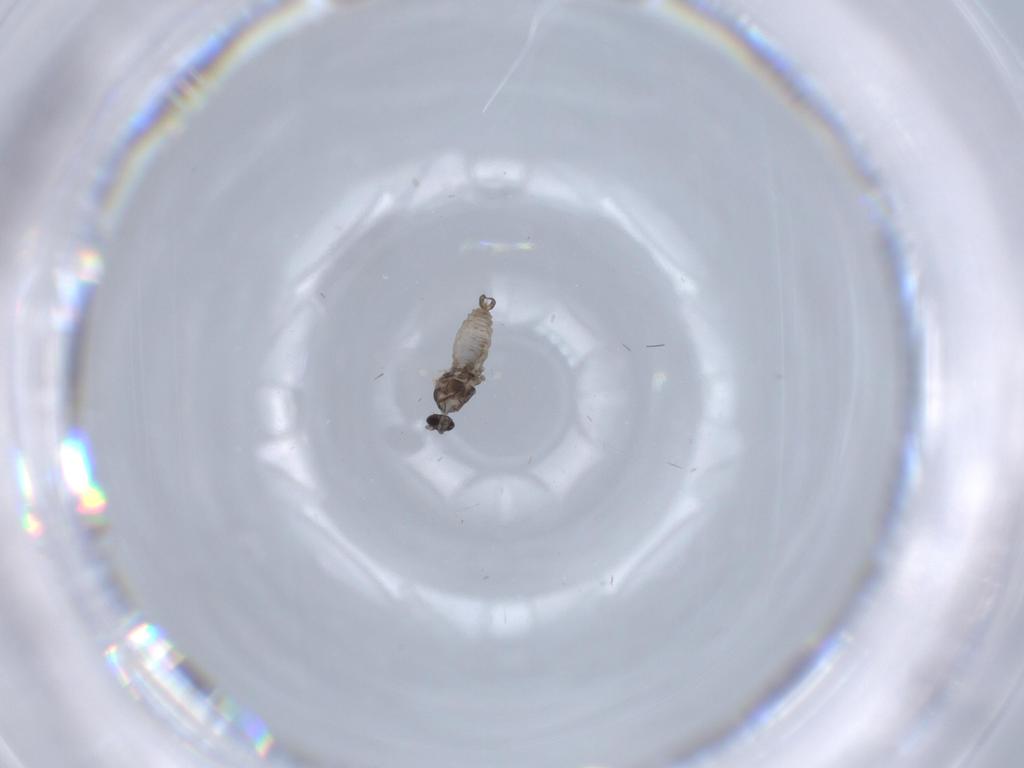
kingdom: Animalia
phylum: Arthropoda
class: Insecta
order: Diptera
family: Cecidomyiidae
